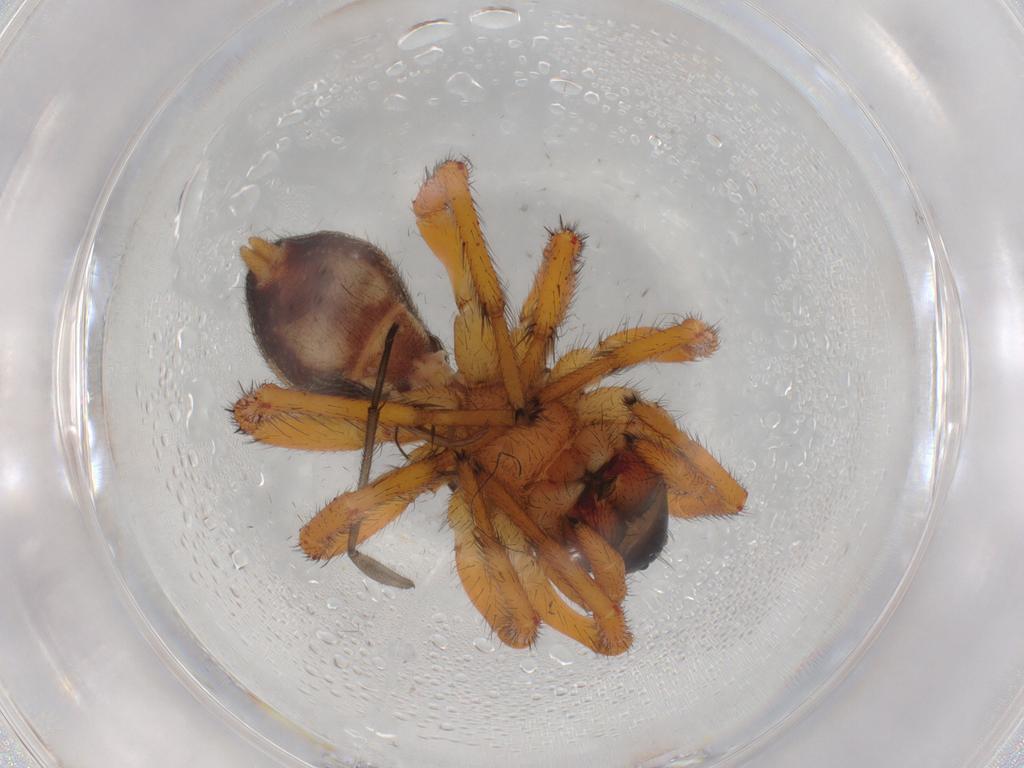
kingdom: Animalia
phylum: Arthropoda
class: Arachnida
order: Araneae
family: Zodariidae
